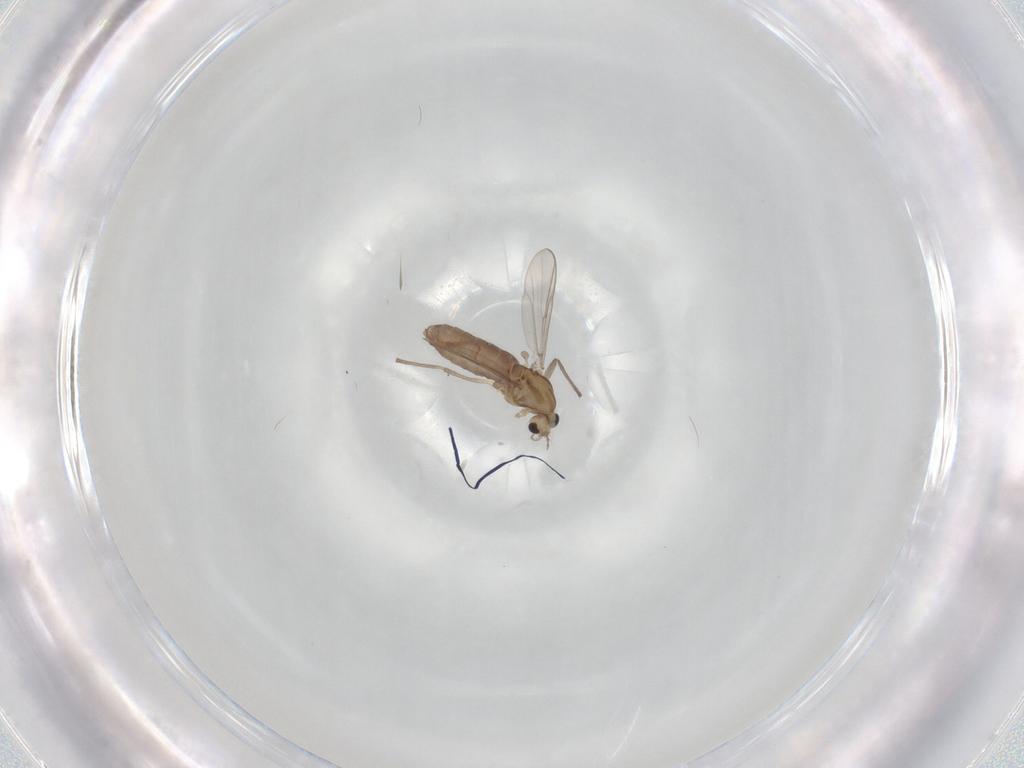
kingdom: Animalia
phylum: Arthropoda
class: Insecta
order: Diptera
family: Chironomidae
